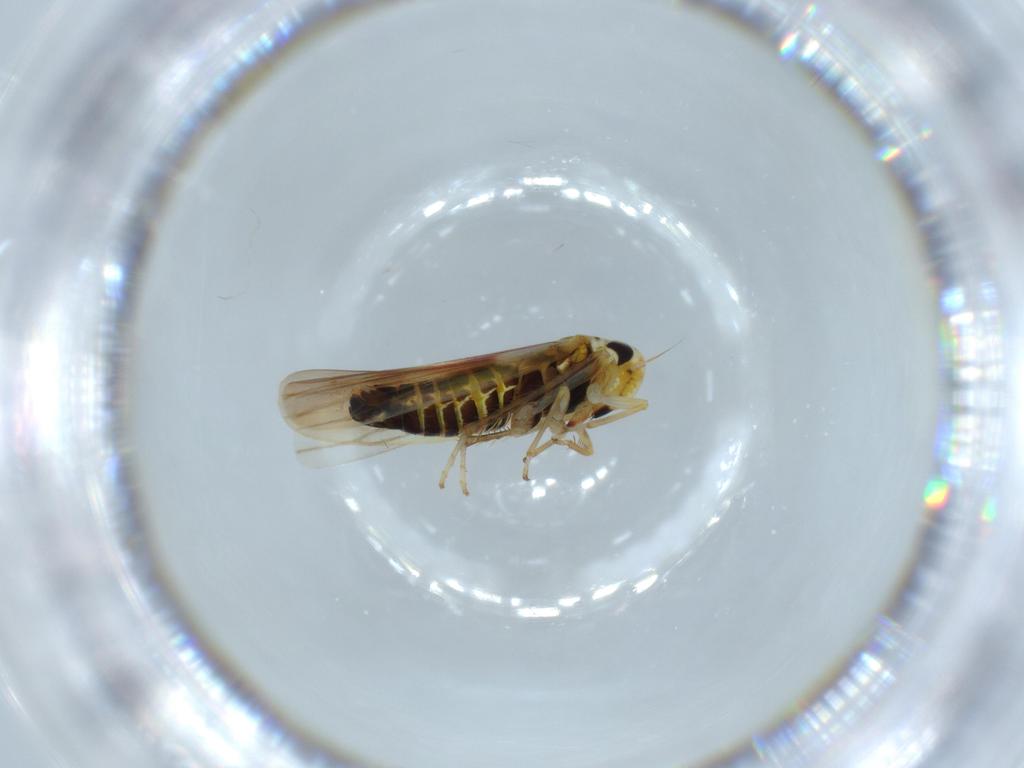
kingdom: Animalia
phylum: Arthropoda
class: Insecta
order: Hemiptera
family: Cicadellidae
